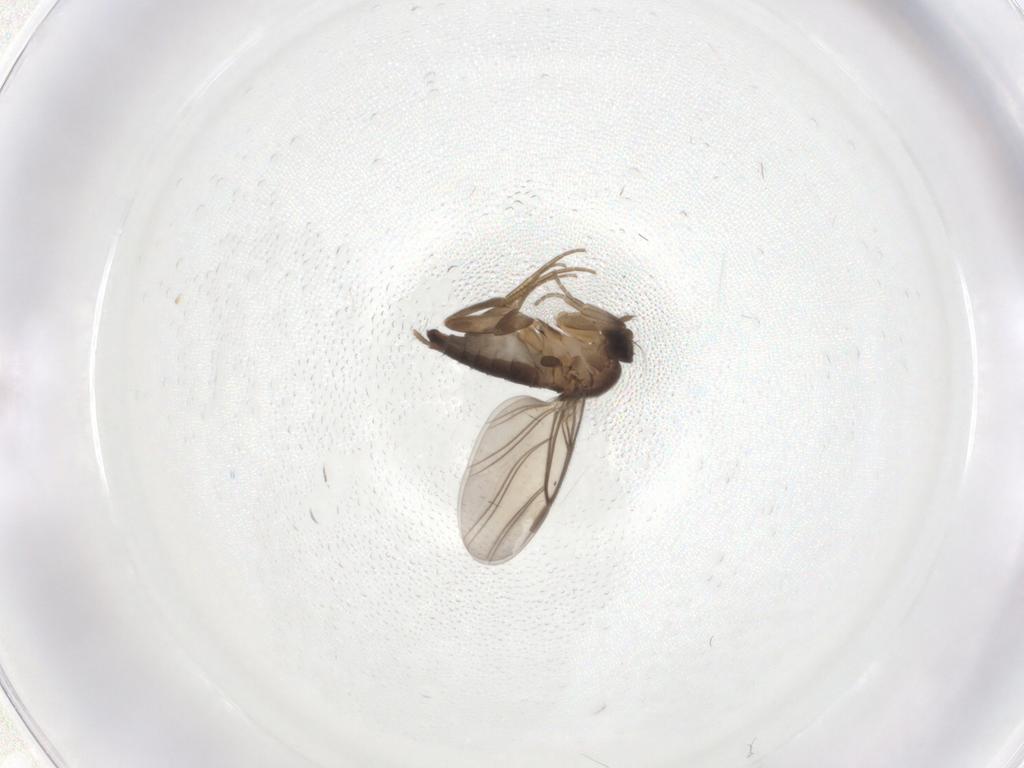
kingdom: Animalia
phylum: Arthropoda
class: Insecta
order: Diptera
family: Phoridae
